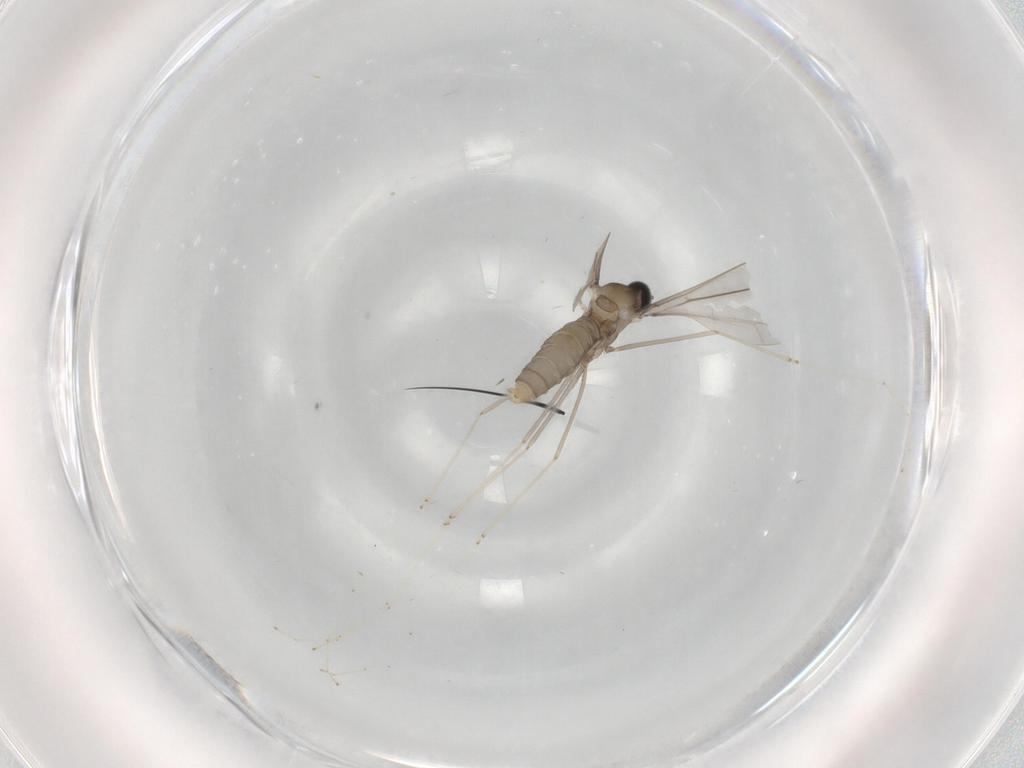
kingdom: Animalia
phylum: Arthropoda
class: Insecta
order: Diptera
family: Cecidomyiidae
